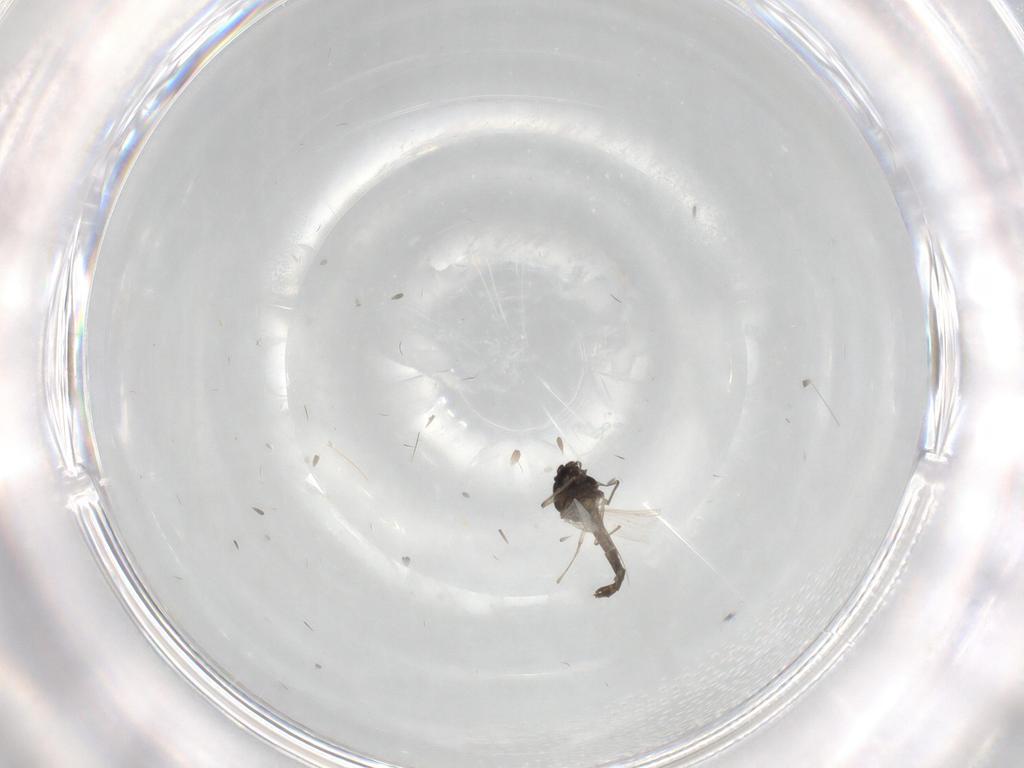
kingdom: Animalia
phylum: Arthropoda
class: Insecta
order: Diptera
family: Cecidomyiidae
